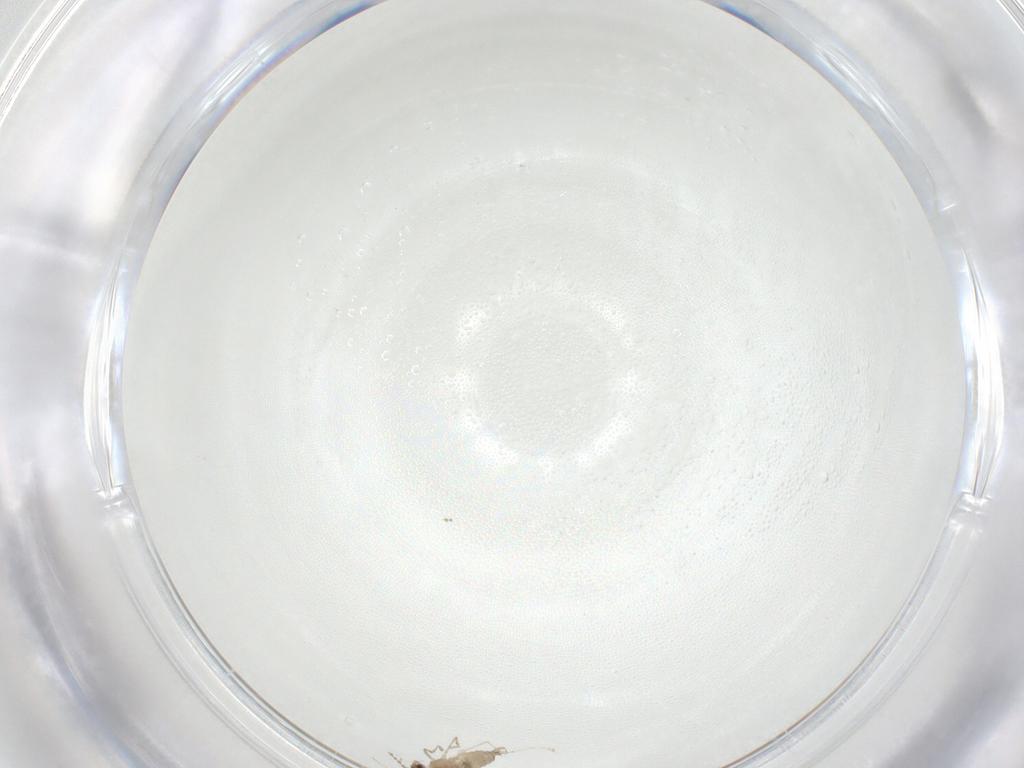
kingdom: Animalia
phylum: Arthropoda
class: Insecta
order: Diptera
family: Cecidomyiidae
